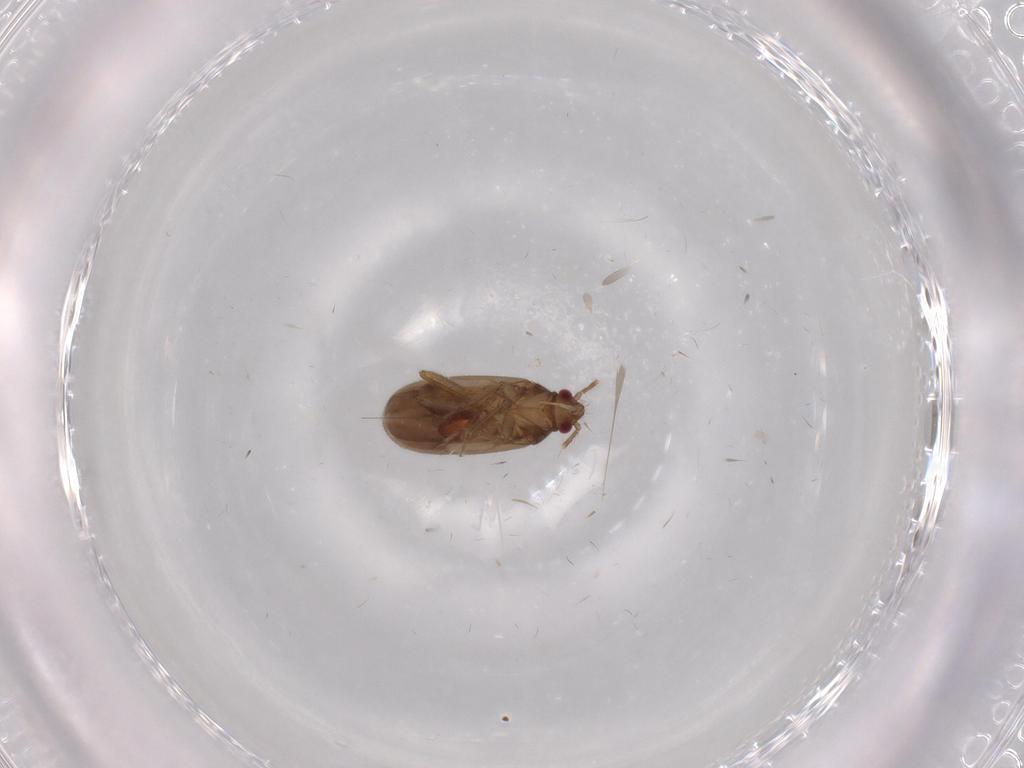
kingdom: Animalia
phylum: Arthropoda
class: Insecta
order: Hemiptera
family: Ceratocombidae
